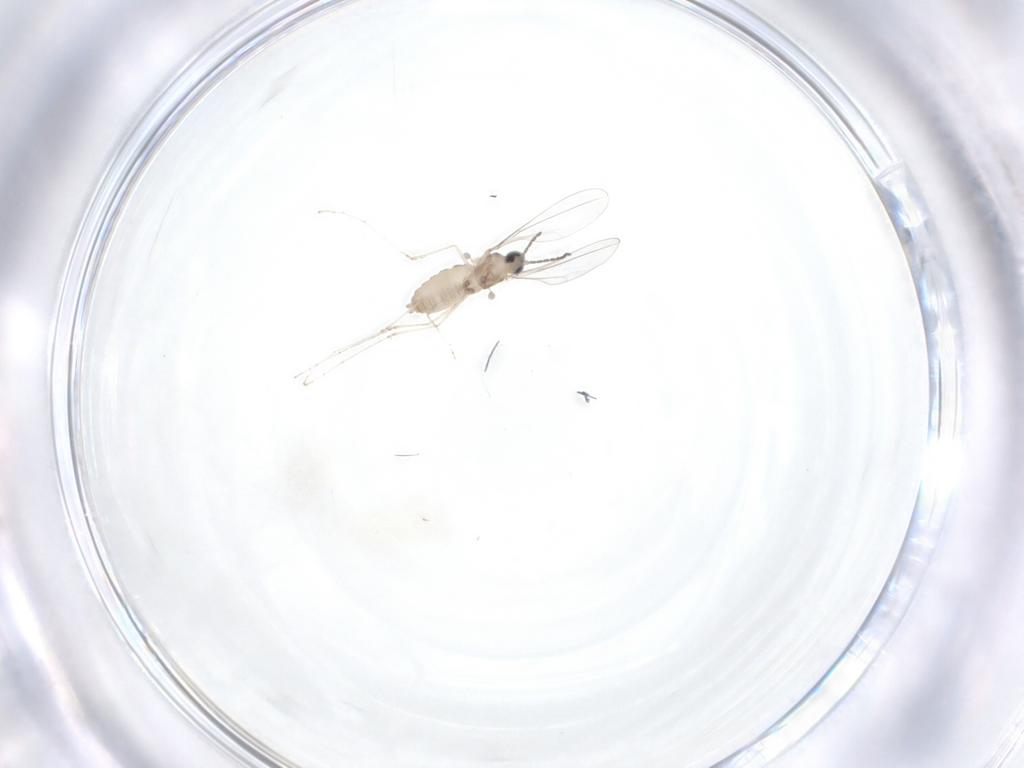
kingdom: Animalia
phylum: Arthropoda
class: Insecta
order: Diptera
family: Cecidomyiidae
